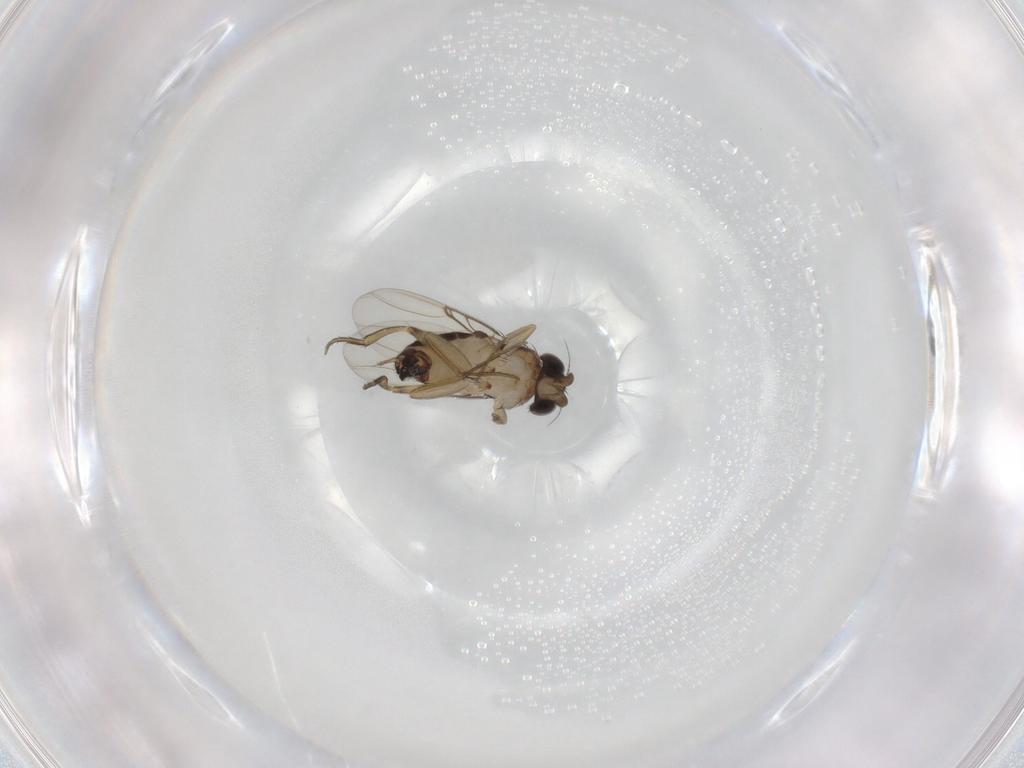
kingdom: Animalia
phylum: Arthropoda
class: Insecta
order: Diptera
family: Phoridae
